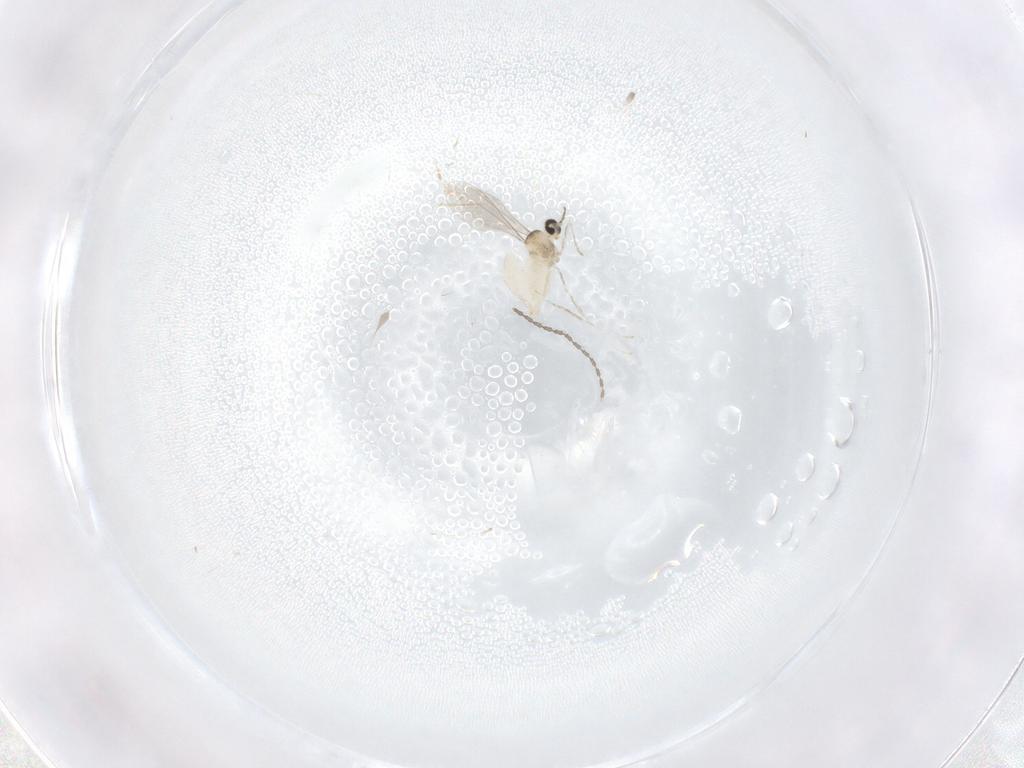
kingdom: Animalia
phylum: Arthropoda
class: Insecta
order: Diptera
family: Cecidomyiidae
